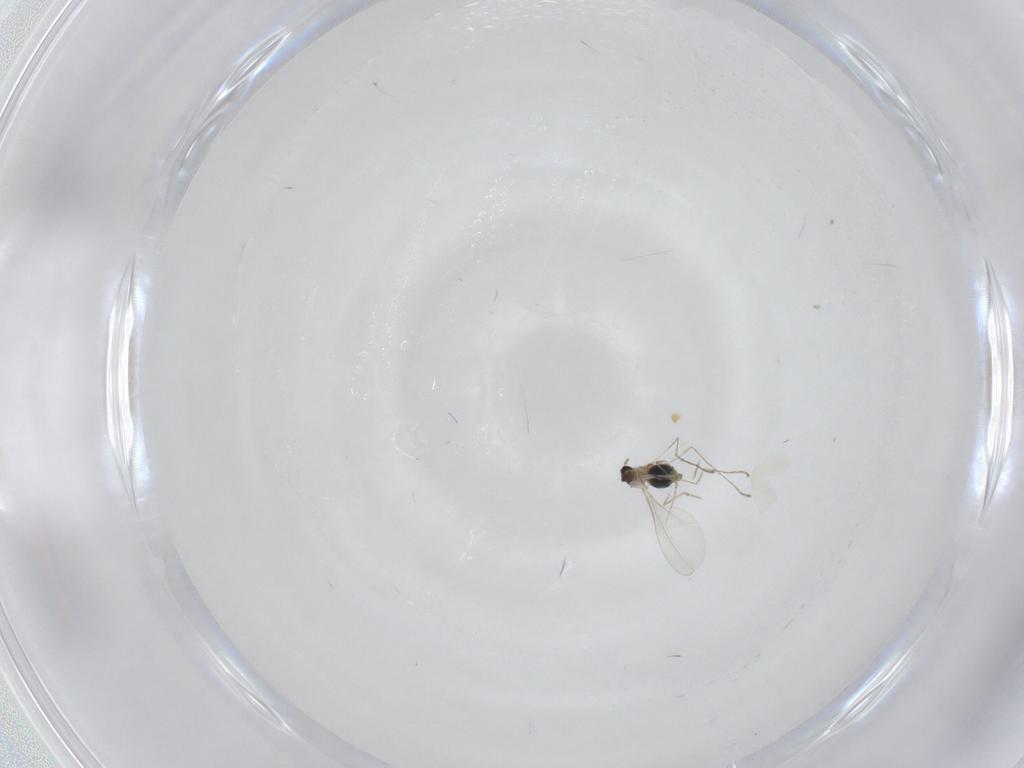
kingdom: Animalia
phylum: Arthropoda
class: Insecta
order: Diptera
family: Cecidomyiidae
